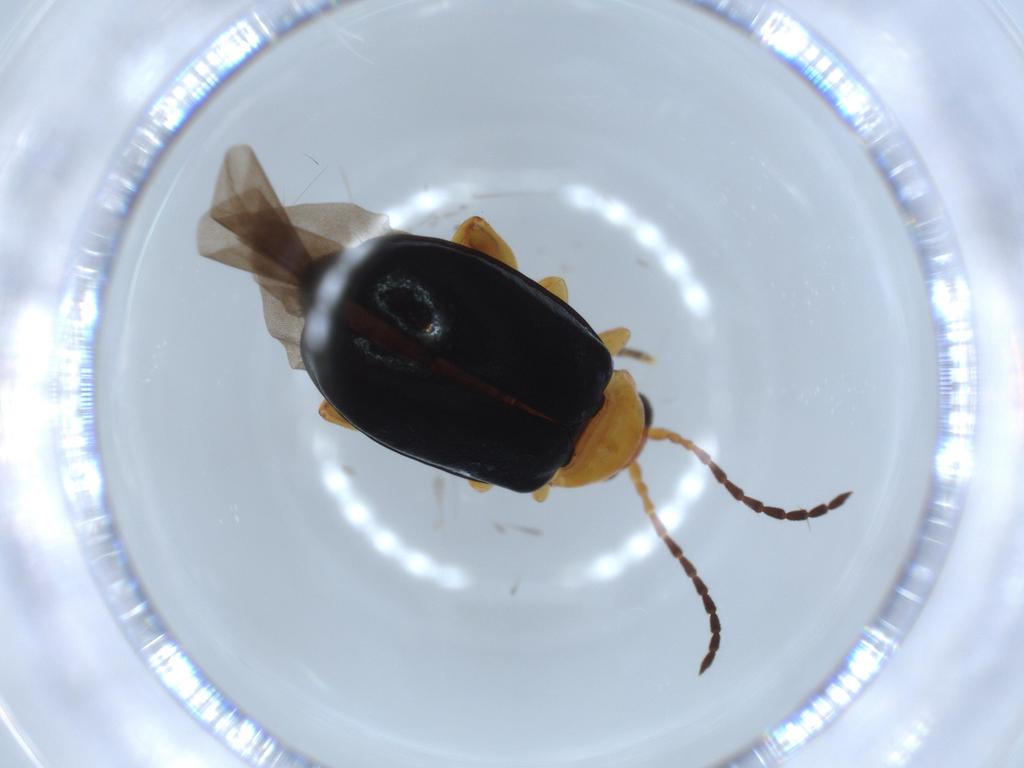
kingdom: Animalia
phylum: Arthropoda
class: Insecta
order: Coleoptera
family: Chrysomelidae
